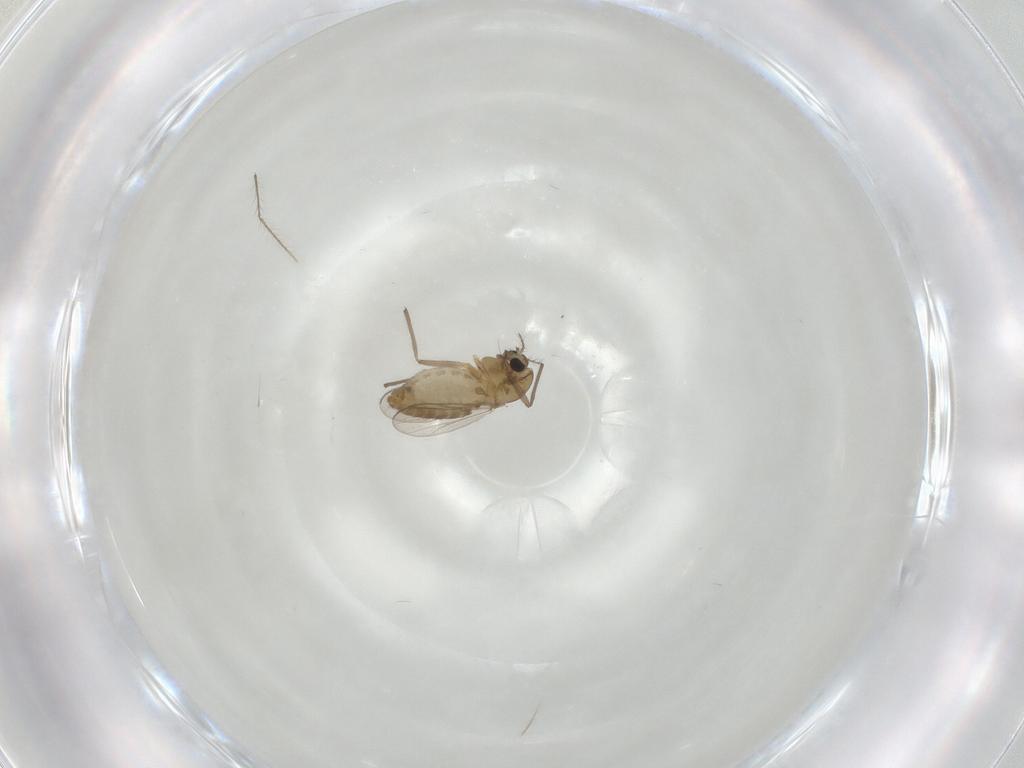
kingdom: Animalia
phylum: Arthropoda
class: Insecta
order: Diptera
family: Chironomidae
